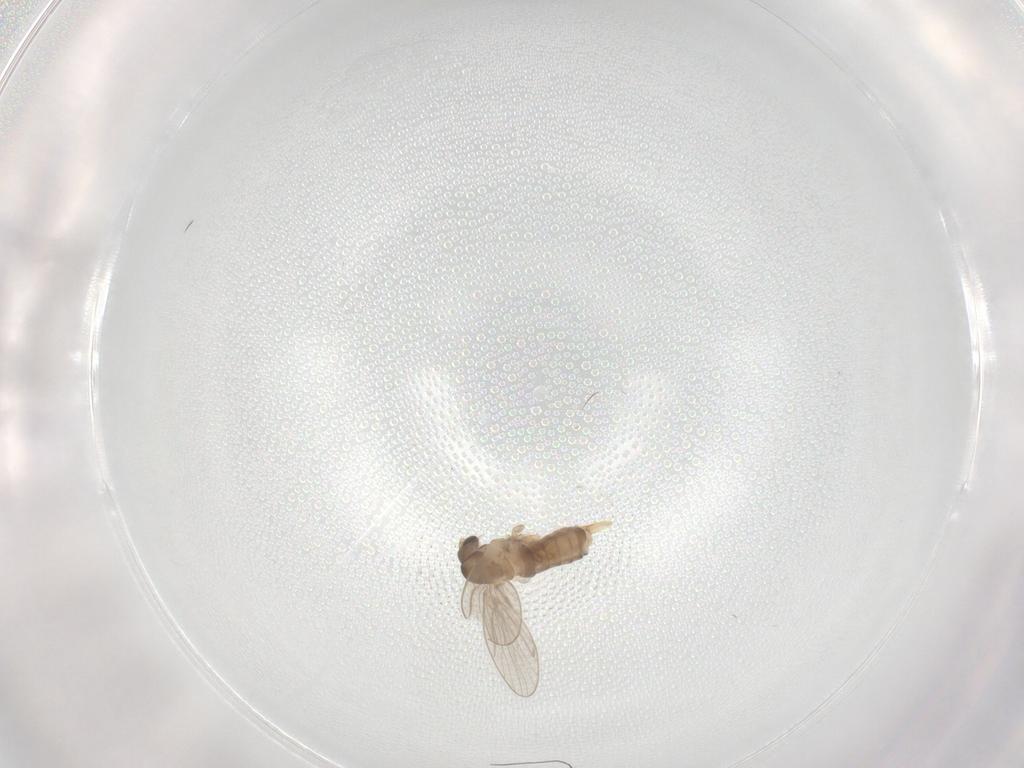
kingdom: Animalia
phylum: Arthropoda
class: Insecta
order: Diptera
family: Psychodidae
